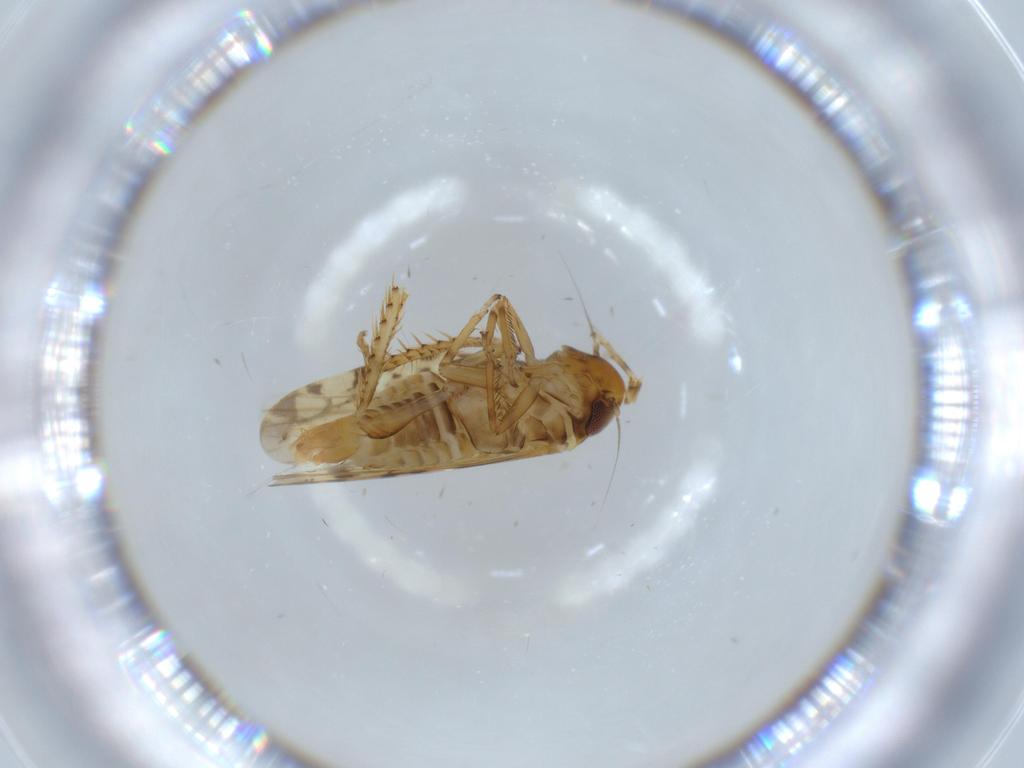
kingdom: Animalia
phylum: Arthropoda
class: Insecta
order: Hemiptera
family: Cicadellidae
